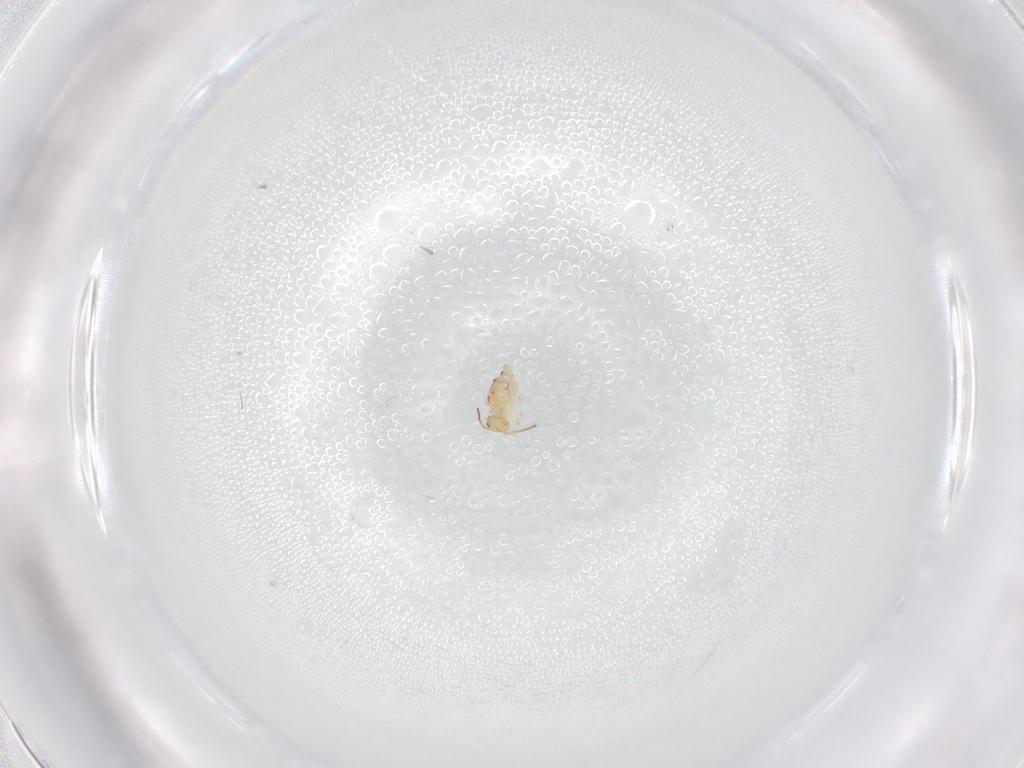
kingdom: Animalia
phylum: Arthropoda
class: Collembola
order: Symphypleona
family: Bourletiellidae
